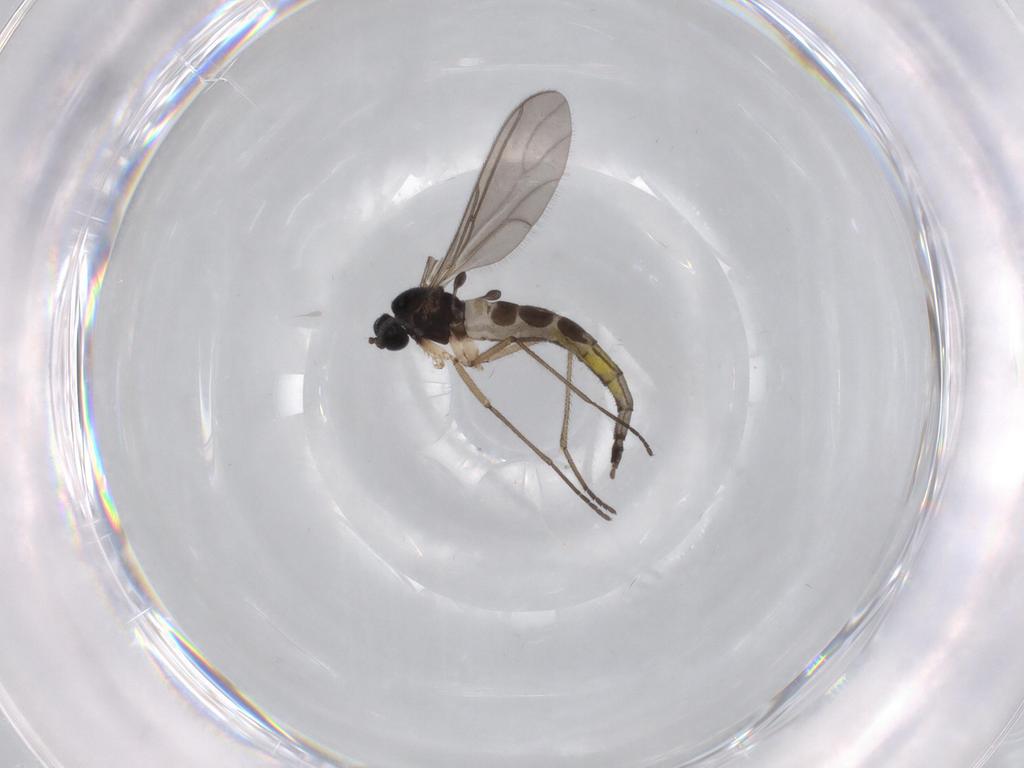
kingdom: Animalia
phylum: Arthropoda
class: Insecta
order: Diptera
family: Sciaridae
